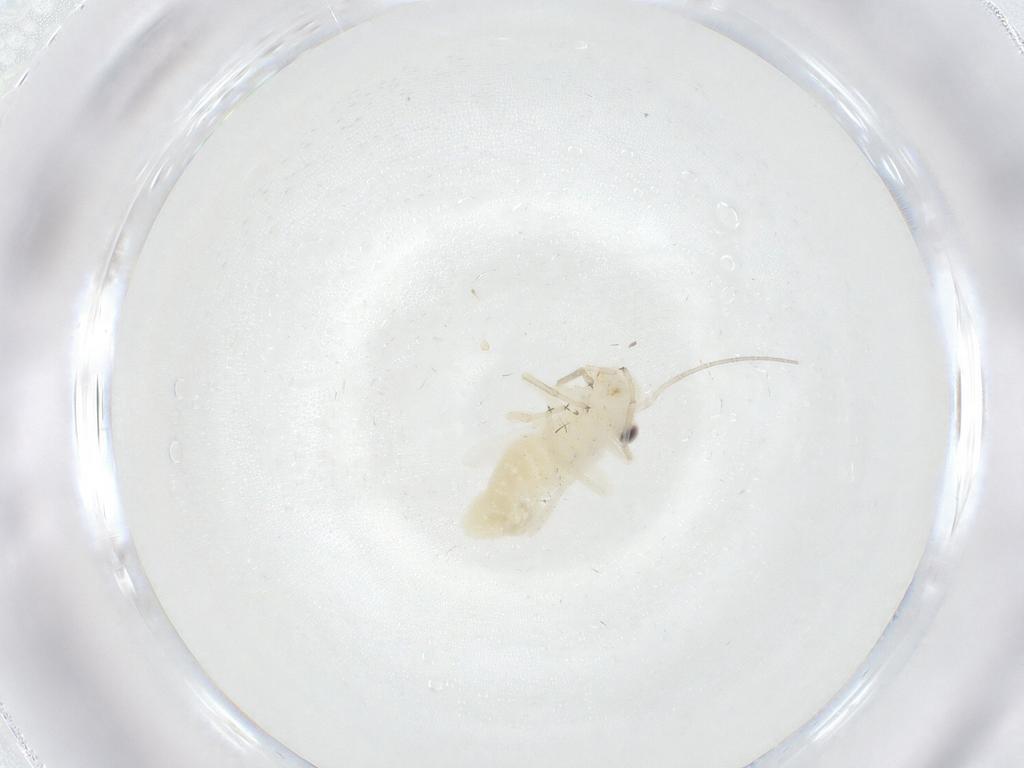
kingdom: Animalia
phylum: Arthropoda
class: Insecta
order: Psocodea
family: Caeciliusidae
